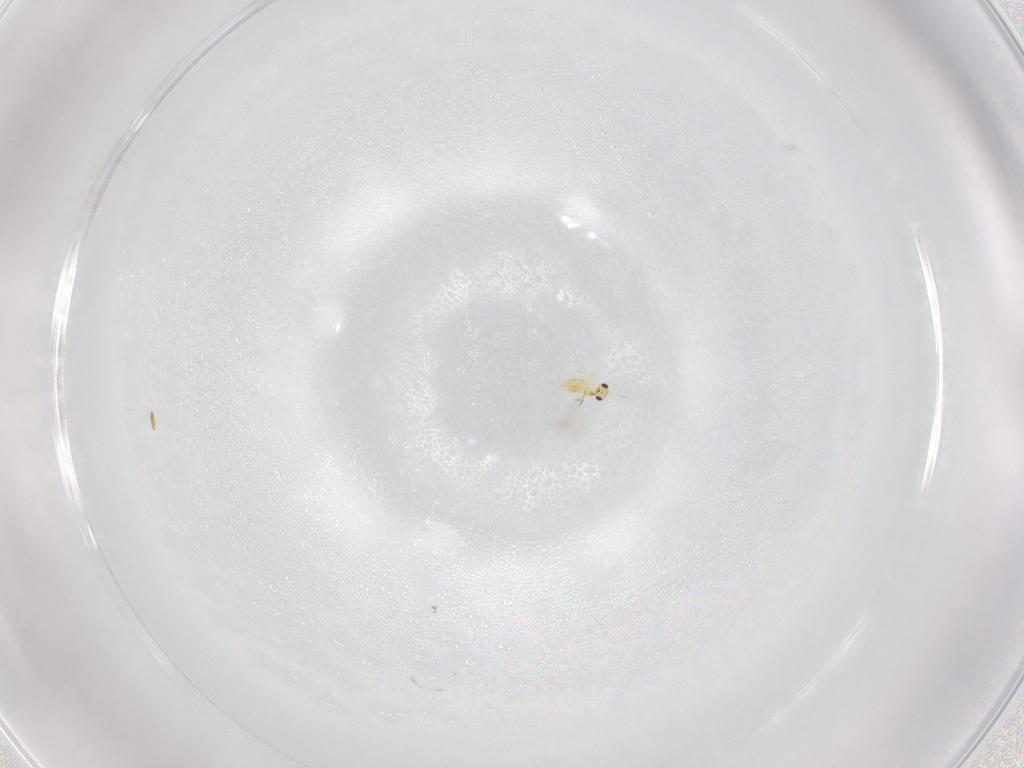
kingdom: Animalia
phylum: Arthropoda
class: Insecta
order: Hymenoptera
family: Mymaridae
